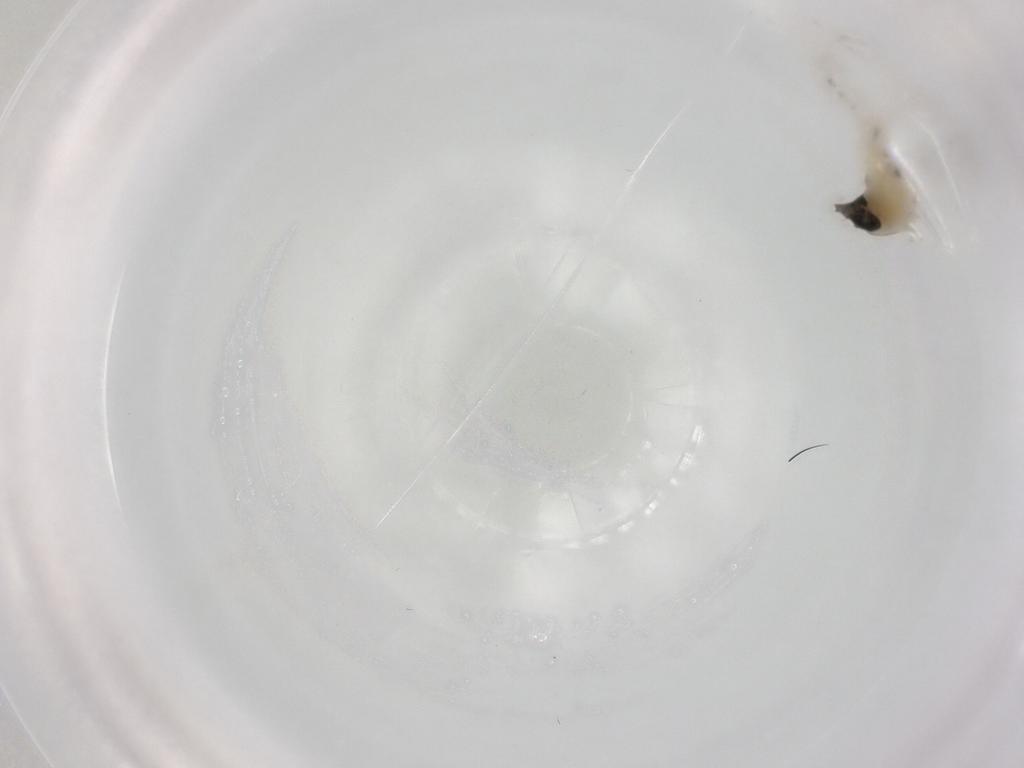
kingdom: Animalia
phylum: Arthropoda
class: Insecta
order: Diptera
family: Chironomidae
